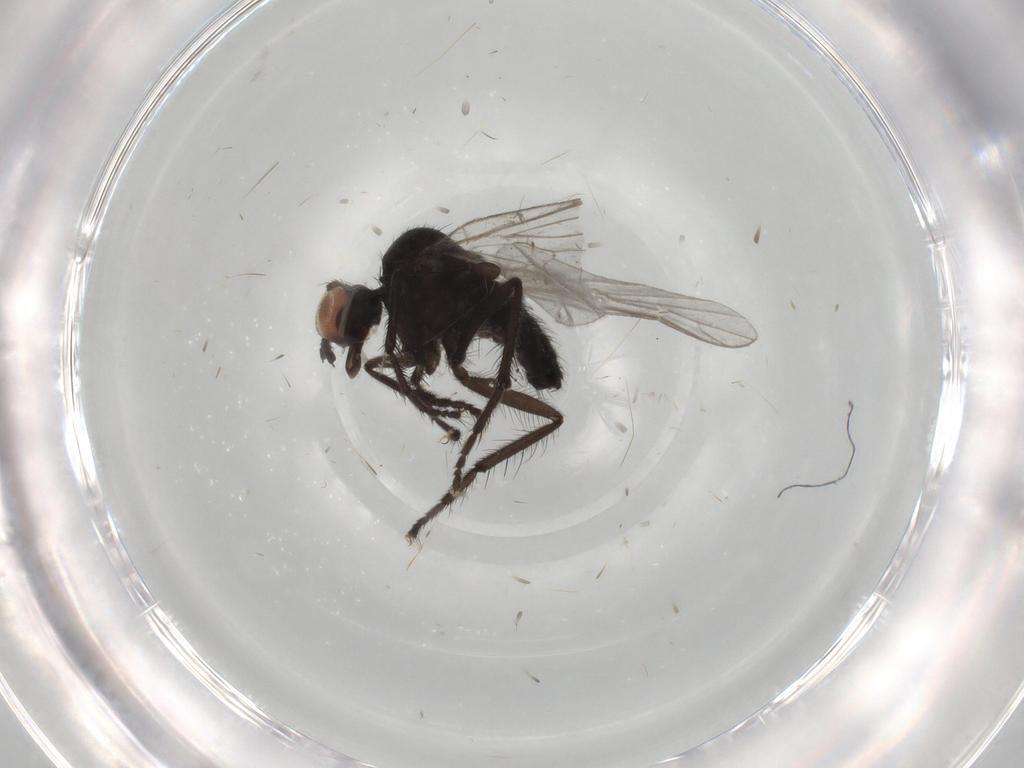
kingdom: Animalia
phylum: Arthropoda
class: Insecta
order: Diptera
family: Empididae
